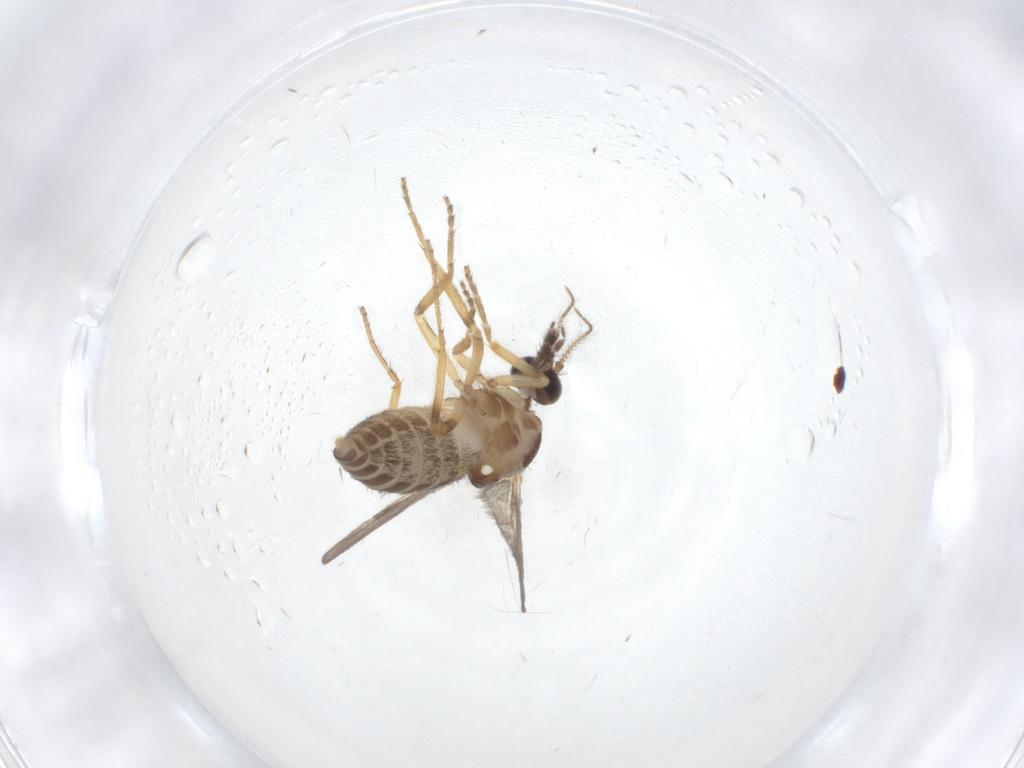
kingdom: Animalia
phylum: Arthropoda
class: Insecta
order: Diptera
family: Ceratopogonidae
